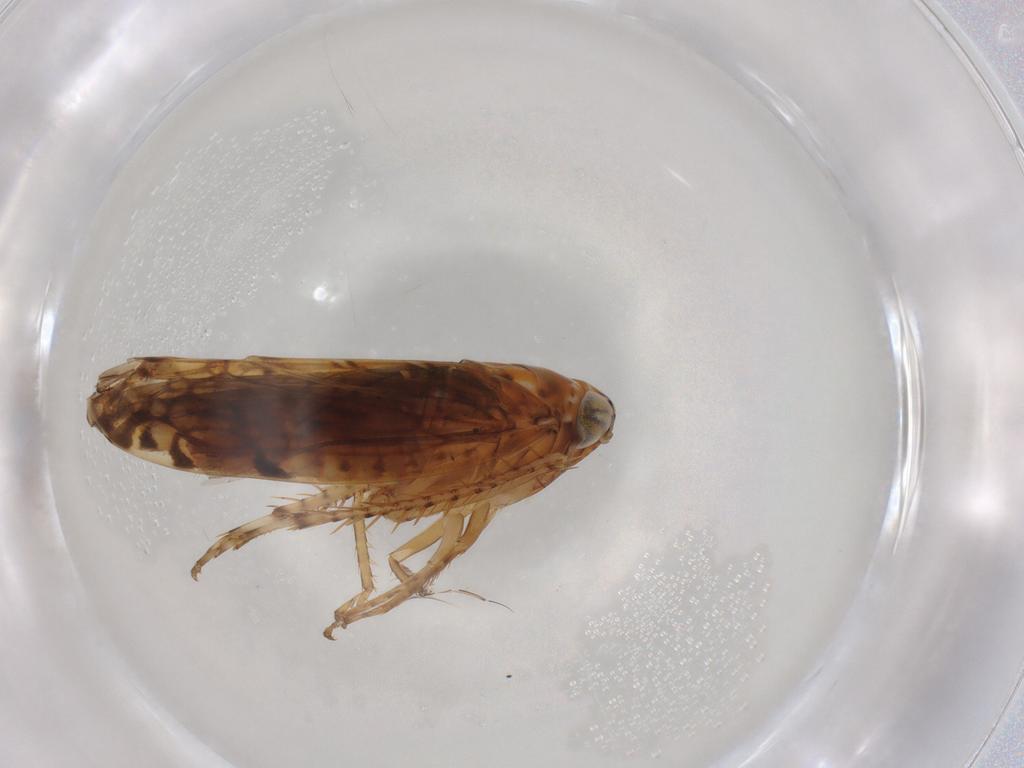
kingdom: Animalia
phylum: Arthropoda
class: Insecta
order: Hemiptera
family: Cicadellidae
